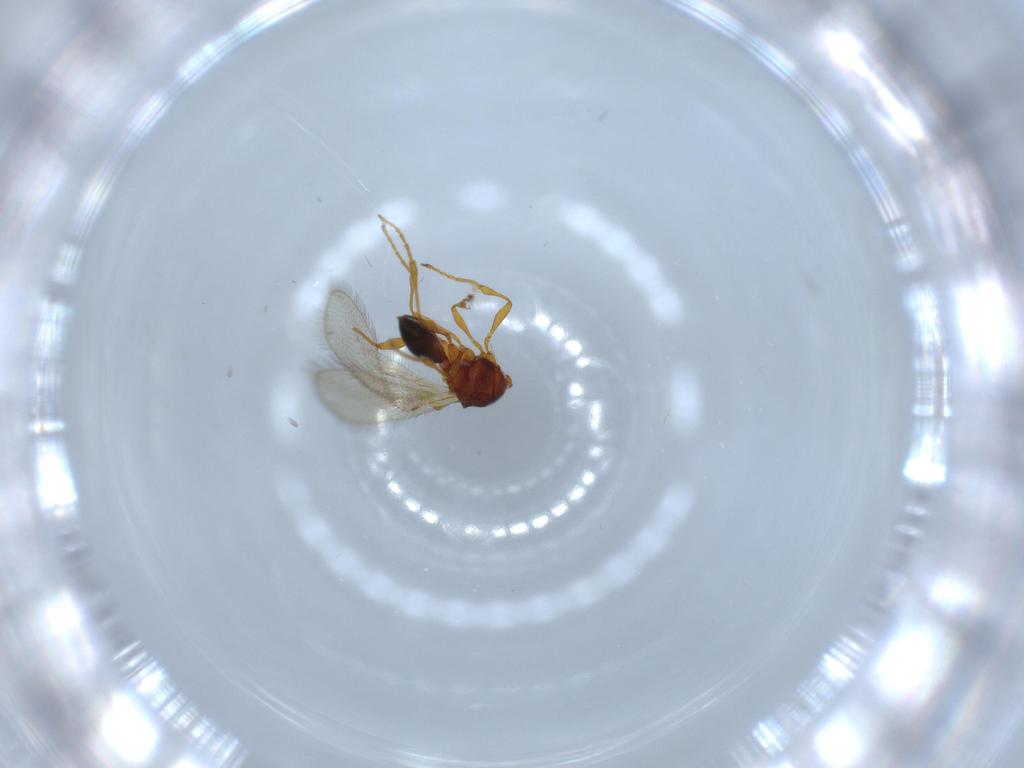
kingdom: Animalia
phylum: Arthropoda
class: Insecta
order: Hymenoptera
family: Diapriidae
